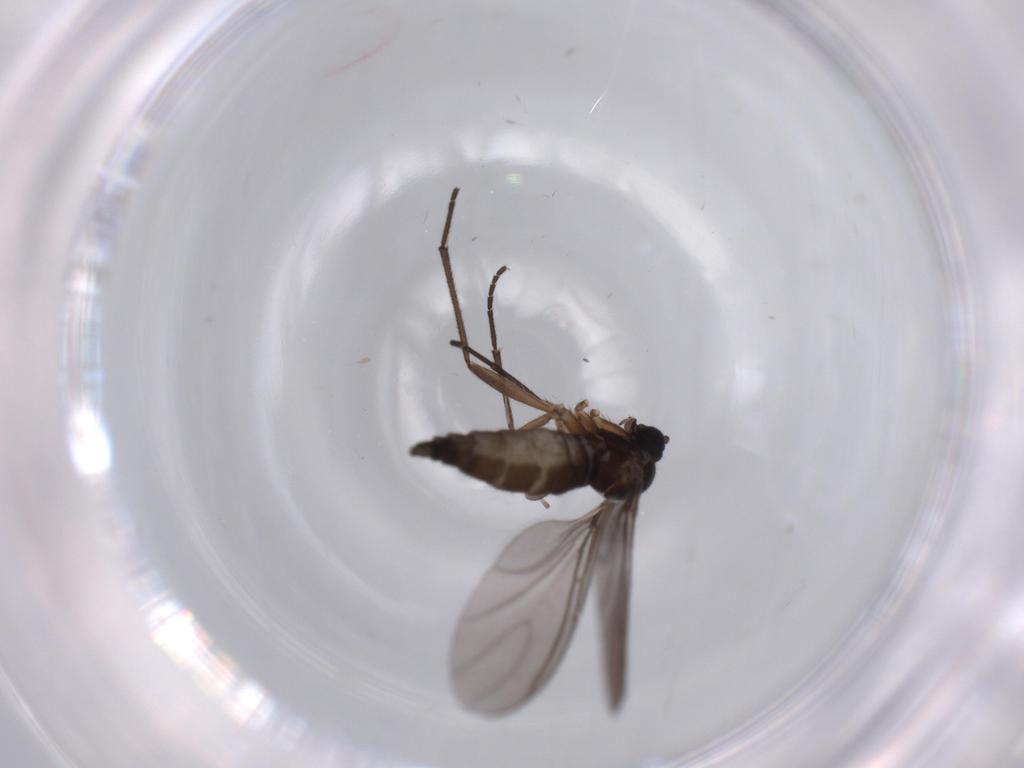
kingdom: Animalia
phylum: Arthropoda
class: Insecta
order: Diptera
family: Sciaridae
